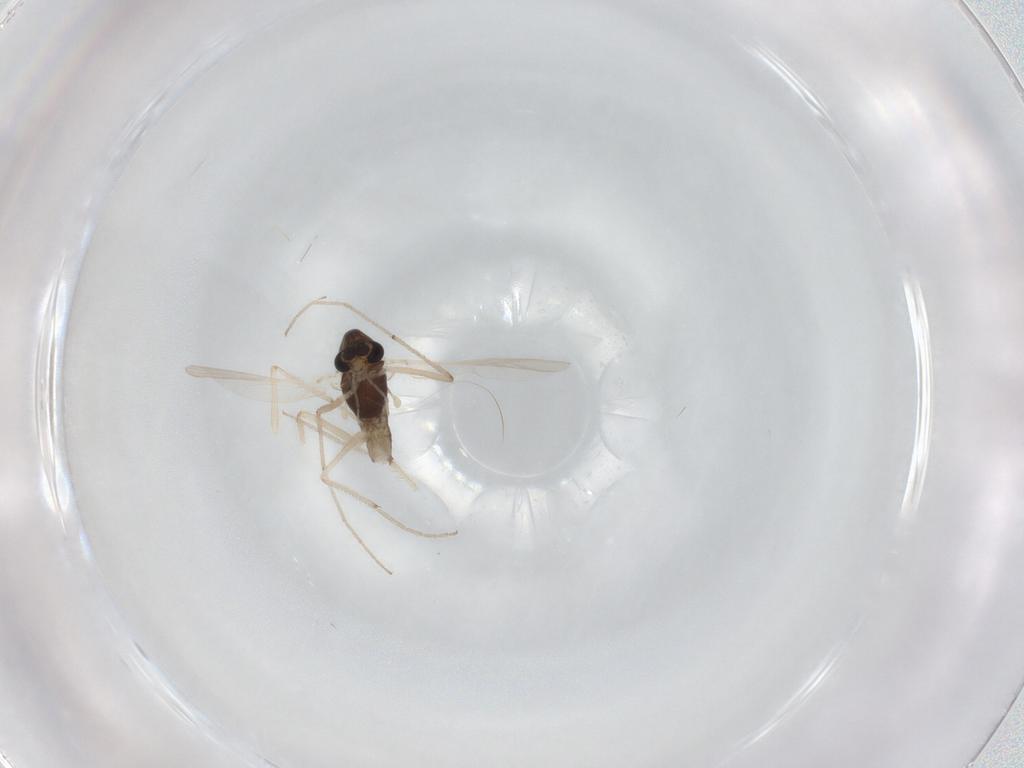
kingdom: Animalia
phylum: Arthropoda
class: Insecta
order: Diptera
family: Chironomidae
